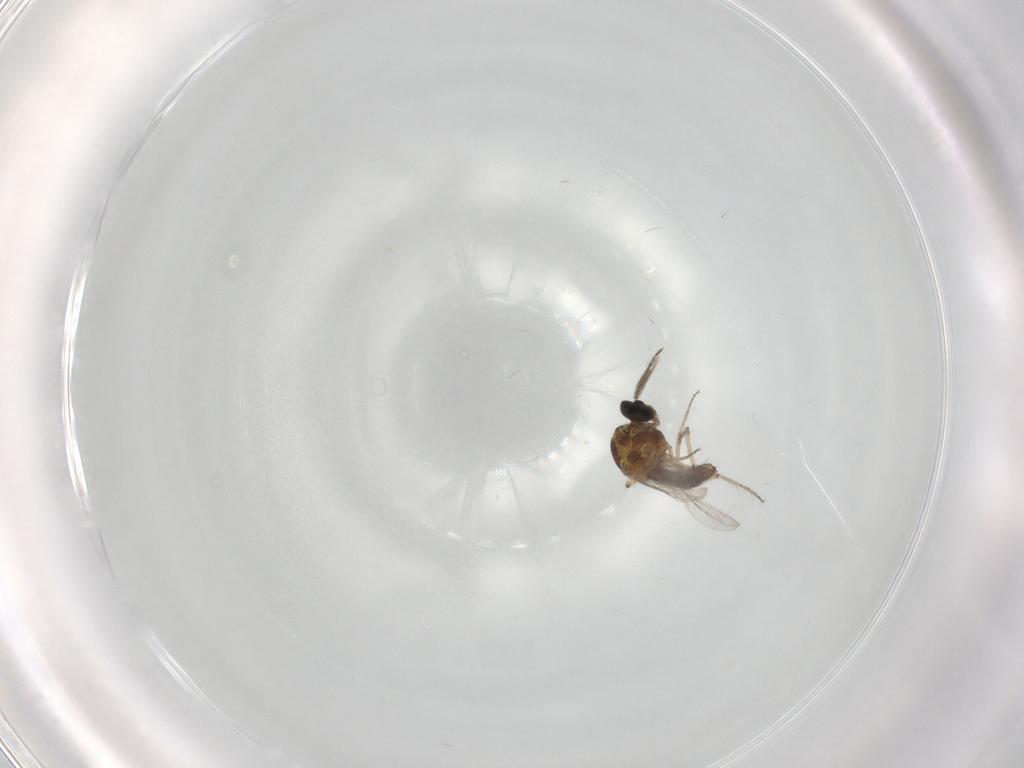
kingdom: Animalia
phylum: Arthropoda
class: Insecta
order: Diptera
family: Ceratopogonidae
